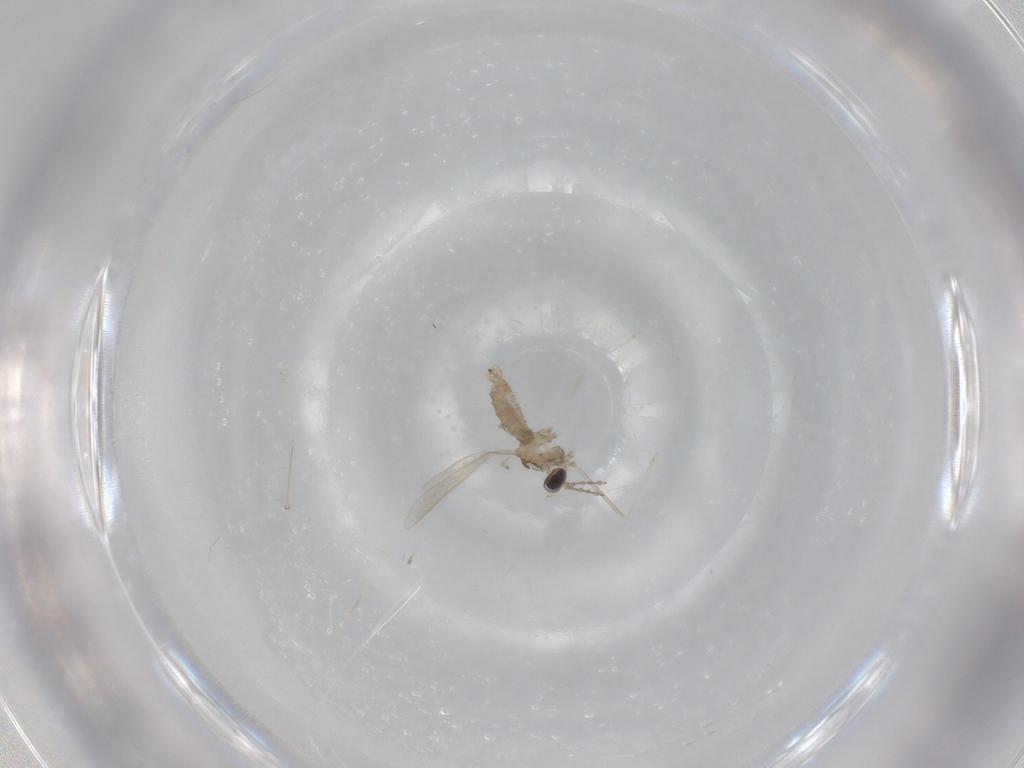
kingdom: Animalia
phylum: Arthropoda
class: Insecta
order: Diptera
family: Cecidomyiidae
